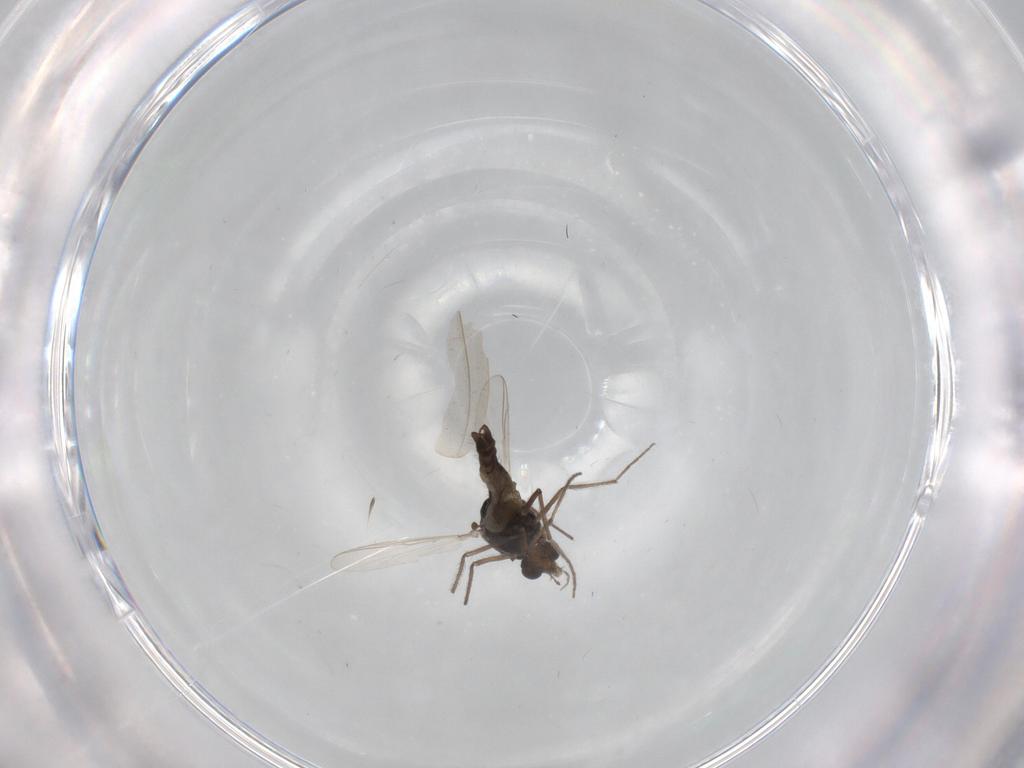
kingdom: Animalia
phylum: Arthropoda
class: Insecta
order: Diptera
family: Chironomidae
